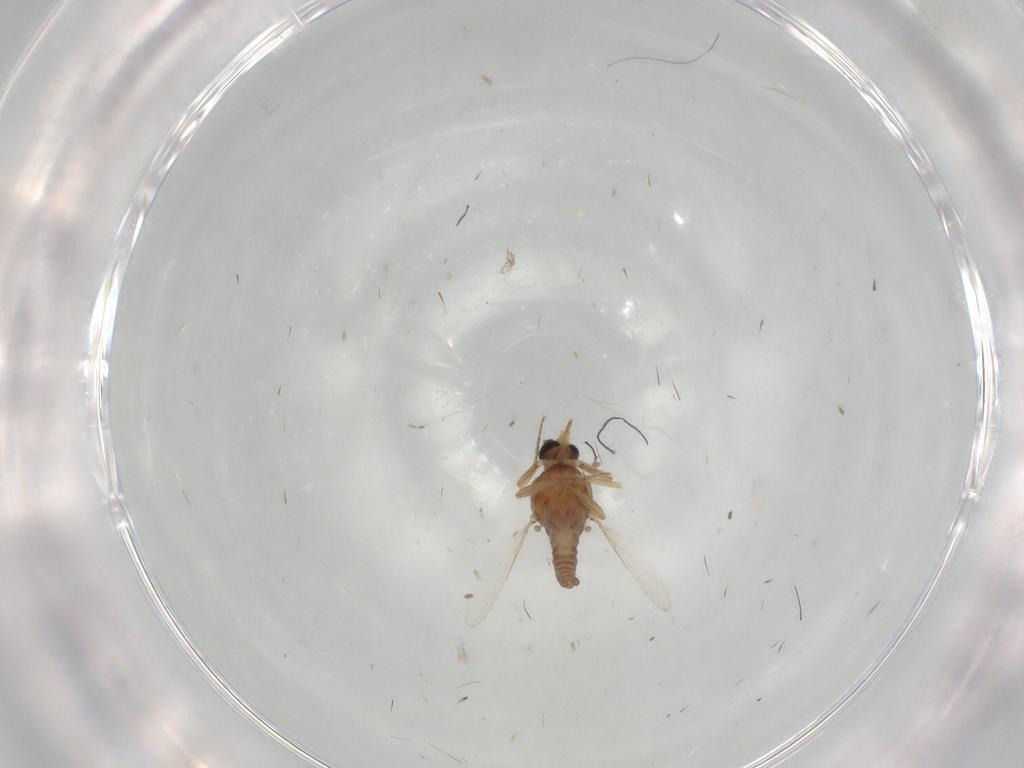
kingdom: Animalia
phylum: Arthropoda
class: Insecta
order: Diptera
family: Ceratopogonidae
